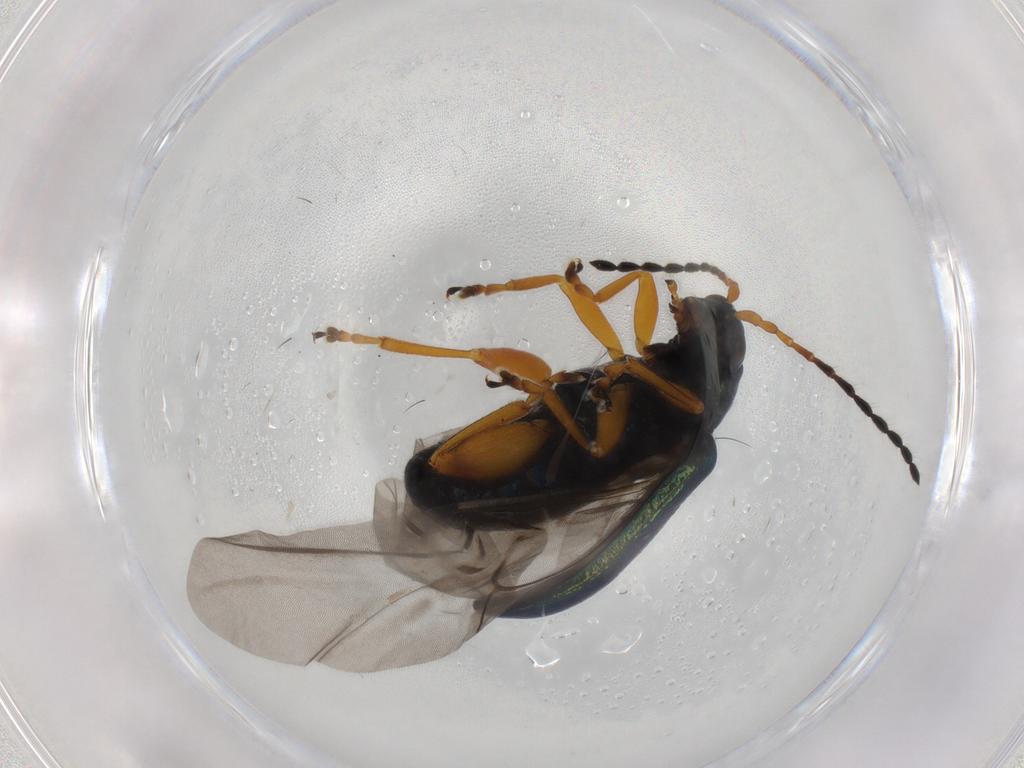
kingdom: Animalia
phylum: Arthropoda
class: Insecta
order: Coleoptera
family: Chrysomelidae
